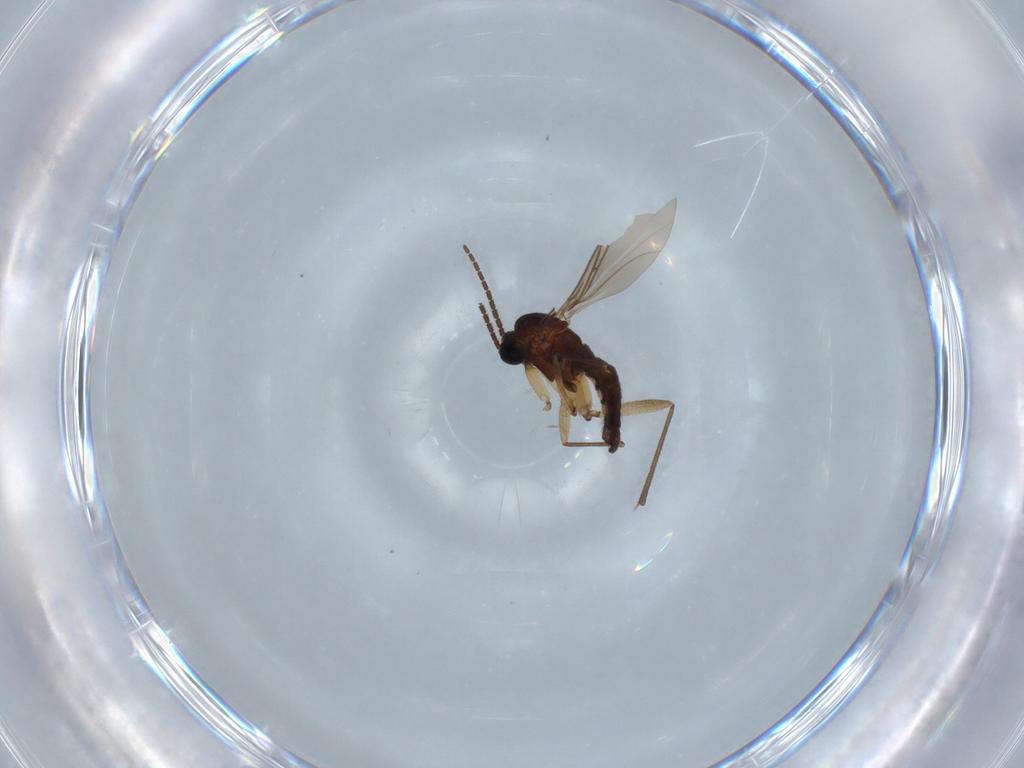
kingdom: Animalia
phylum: Arthropoda
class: Insecta
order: Diptera
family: Sciaridae
